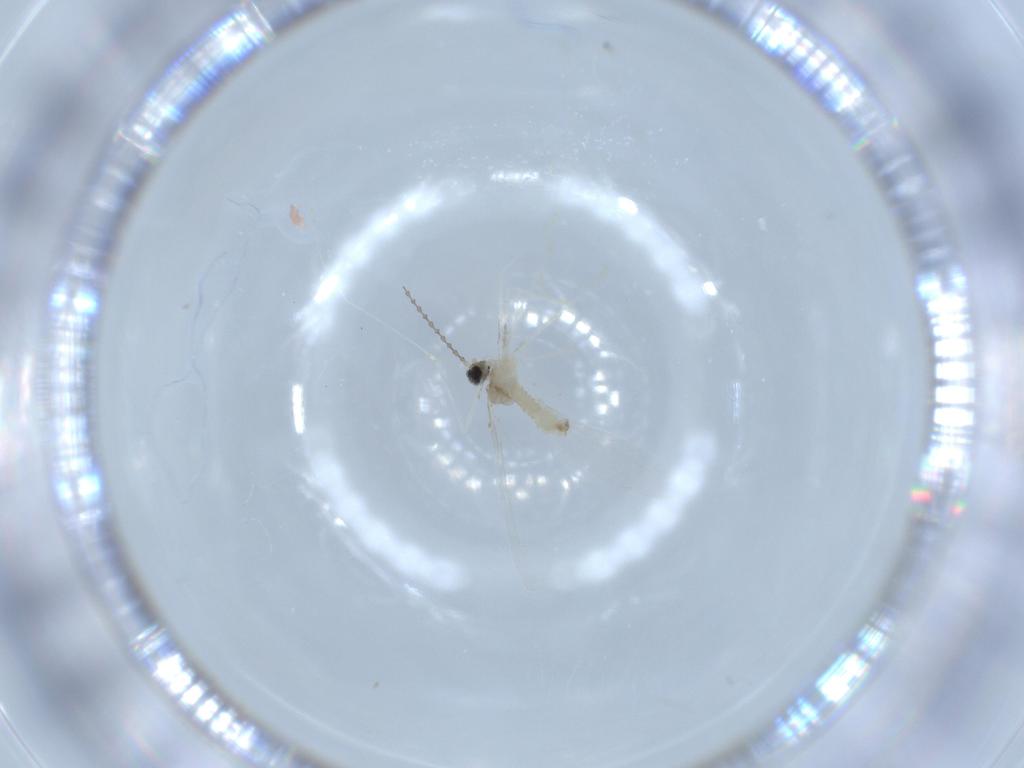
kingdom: Animalia
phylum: Arthropoda
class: Insecta
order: Diptera
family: Cecidomyiidae
